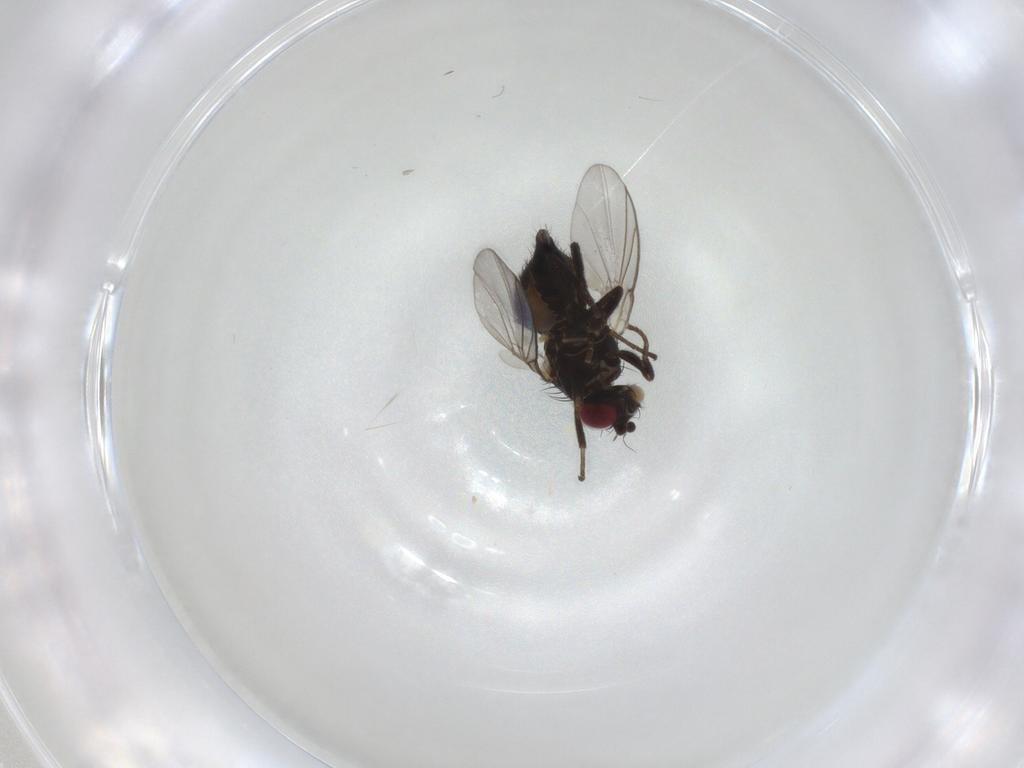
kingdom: Animalia
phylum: Arthropoda
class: Insecta
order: Diptera
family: Agromyzidae
